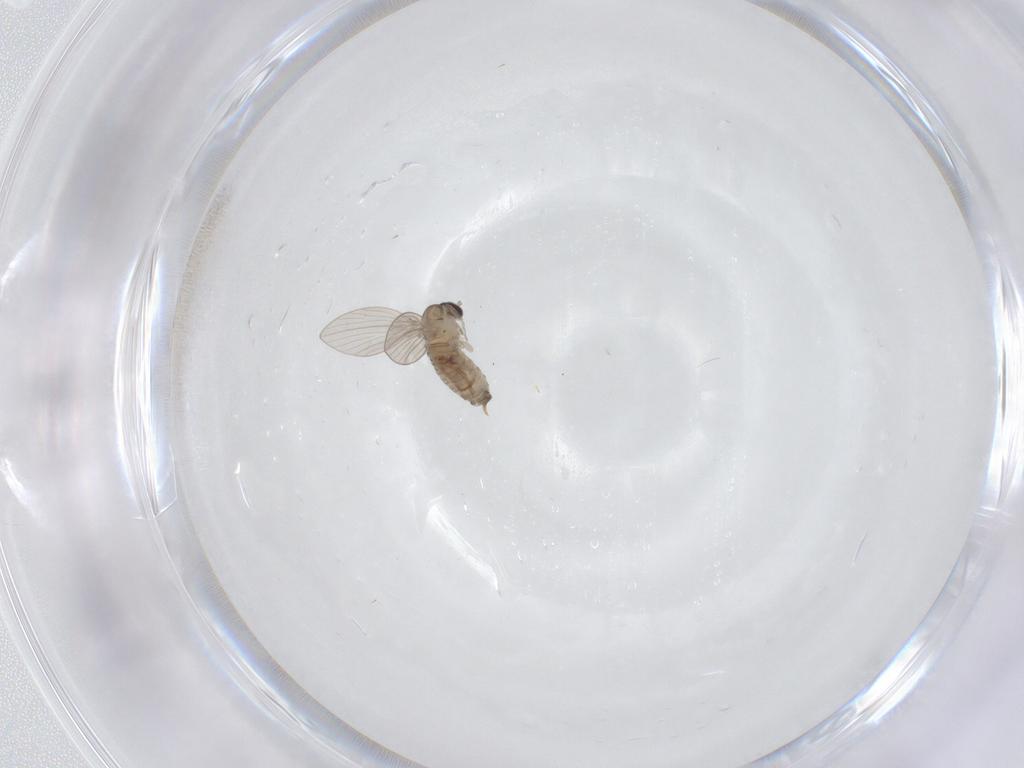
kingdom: Animalia
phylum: Arthropoda
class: Insecta
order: Diptera
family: Psychodidae
